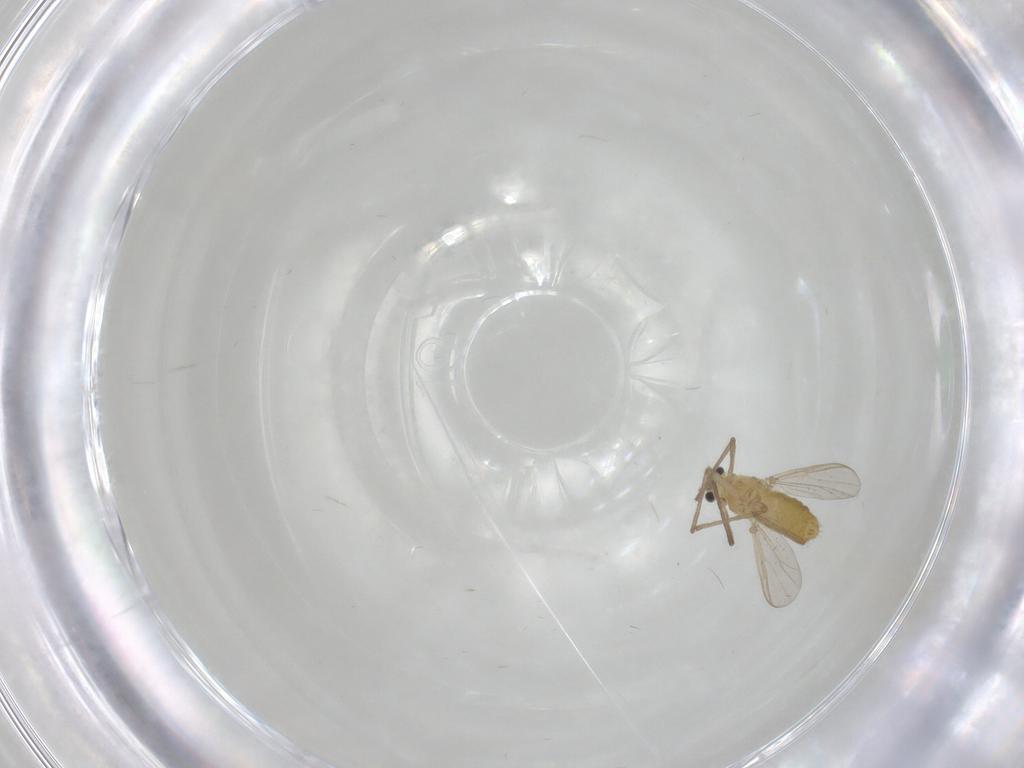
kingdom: Animalia
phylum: Arthropoda
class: Insecta
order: Diptera
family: Chironomidae
